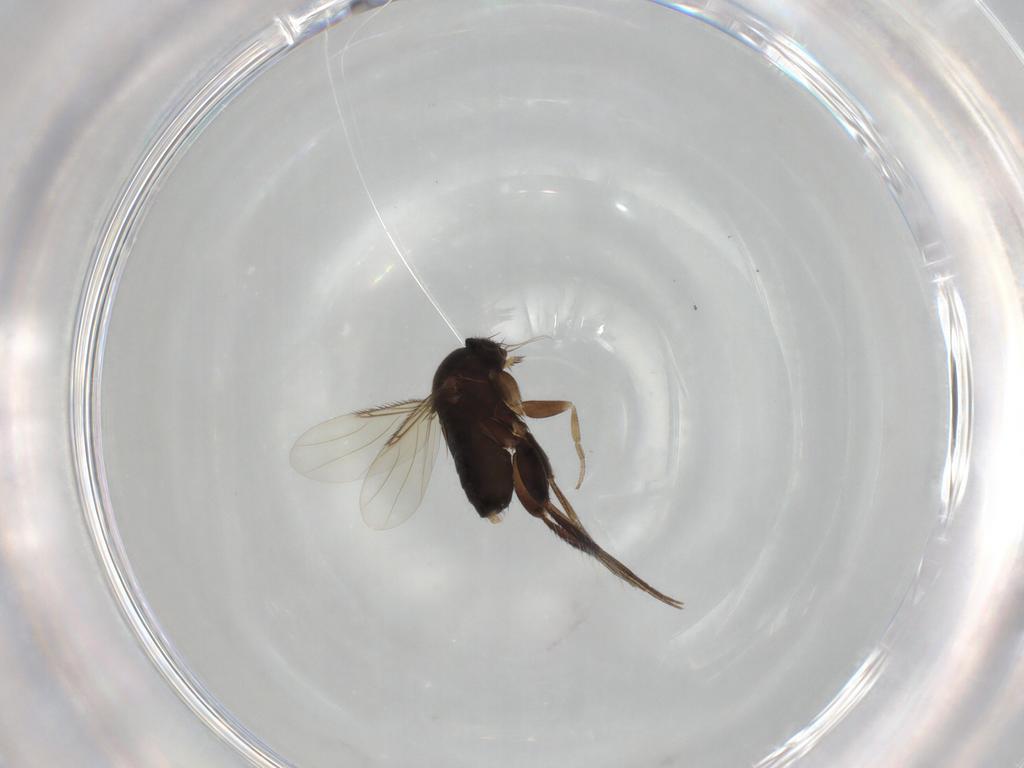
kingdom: Animalia
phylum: Arthropoda
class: Insecta
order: Diptera
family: Phoridae
